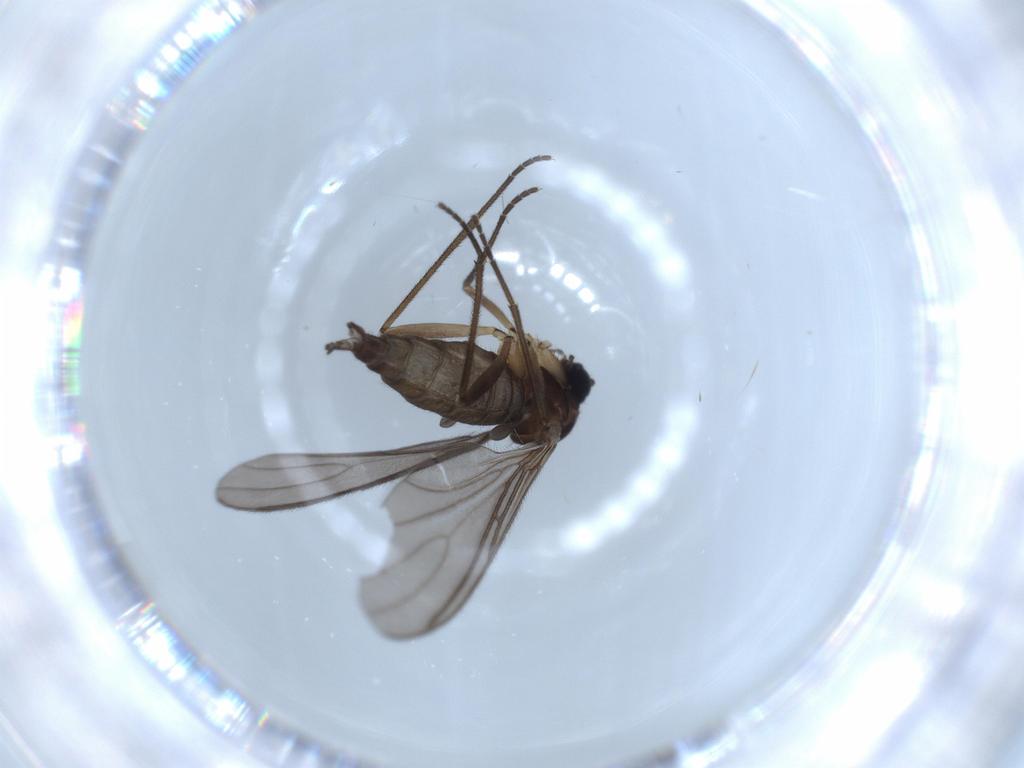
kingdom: Animalia
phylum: Arthropoda
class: Insecta
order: Diptera
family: Sciaridae
